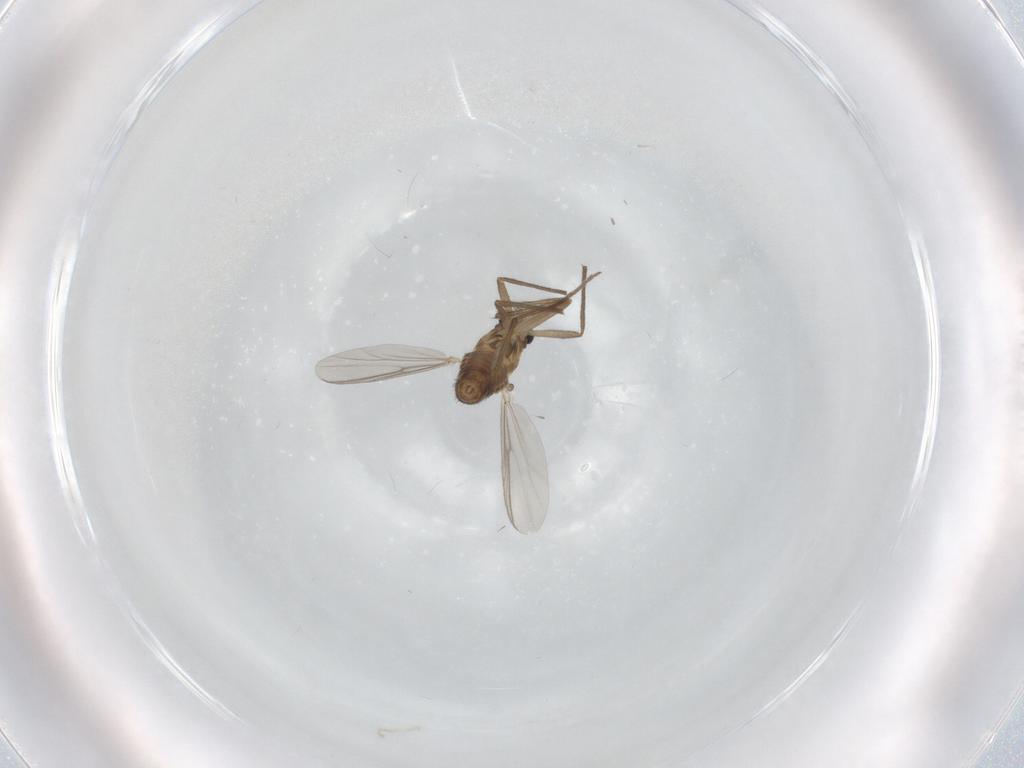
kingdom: Animalia
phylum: Arthropoda
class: Insecta
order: Diptera
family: Chironomidae
